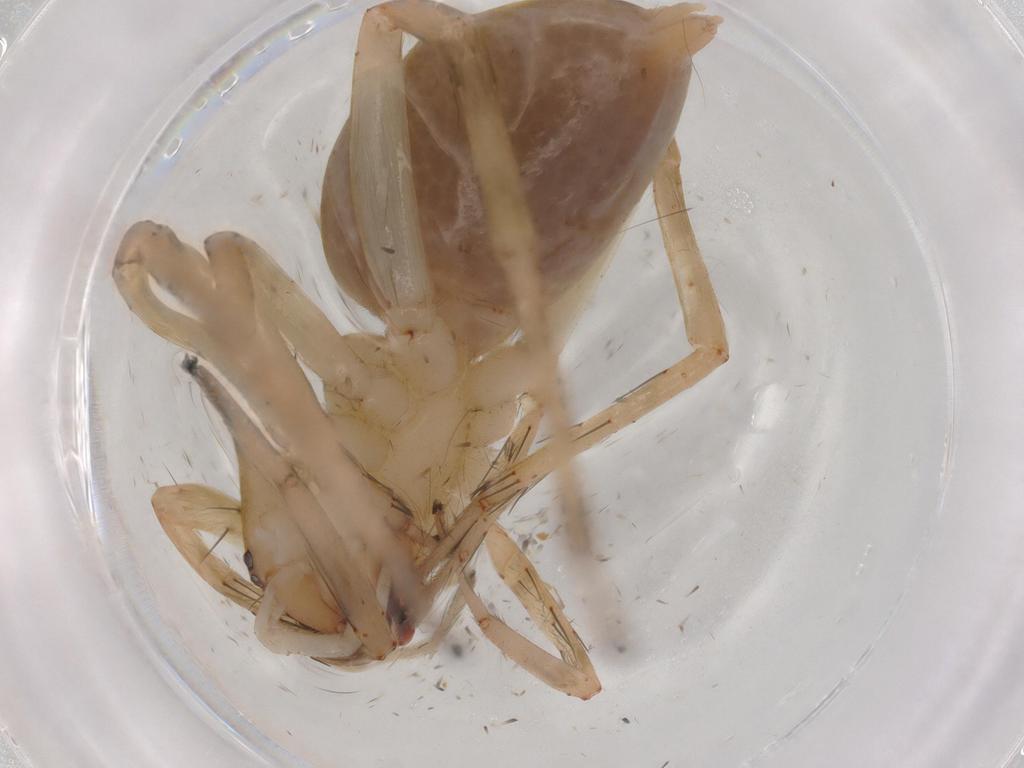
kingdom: Animalia
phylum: Arthropoda
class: Arachnida
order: Araneae
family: Anyphaenidae
